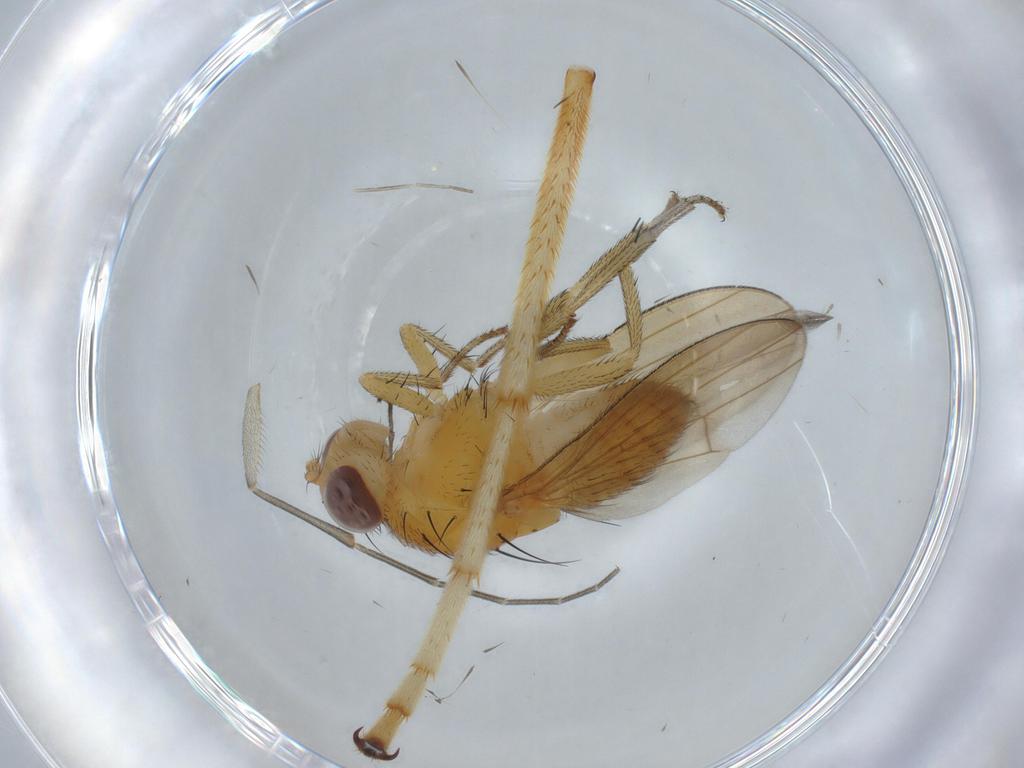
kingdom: Animalia
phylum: Arthropoda
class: Insecta
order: Diptera
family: Lauxaniidae
